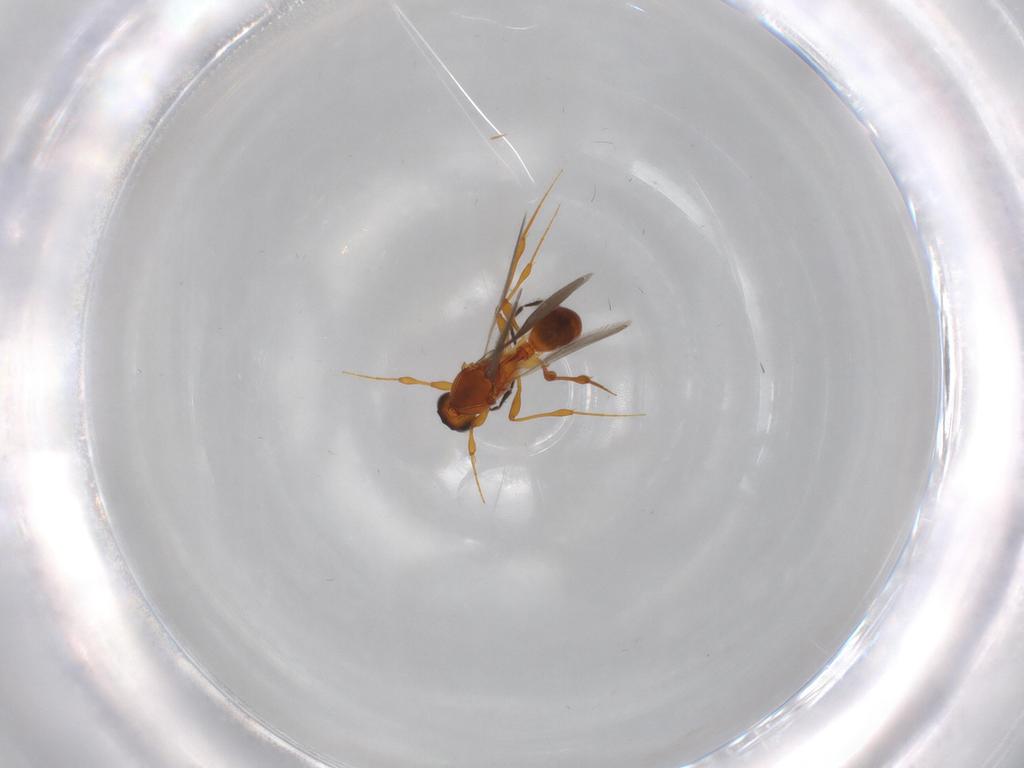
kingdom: Animalia
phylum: Arthropoda
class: Insecta
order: Hymenoptera
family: Platygastridae
